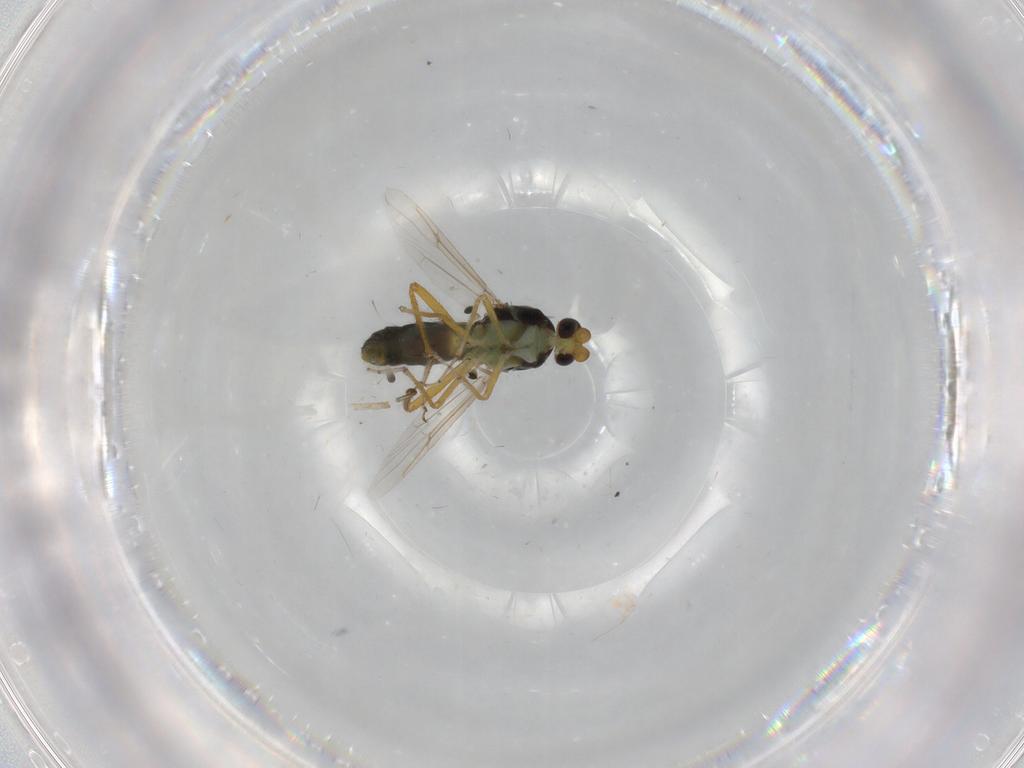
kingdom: Animalia
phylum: Arthropoda
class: Insecta
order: Diptera
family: Ceratopogonidae
